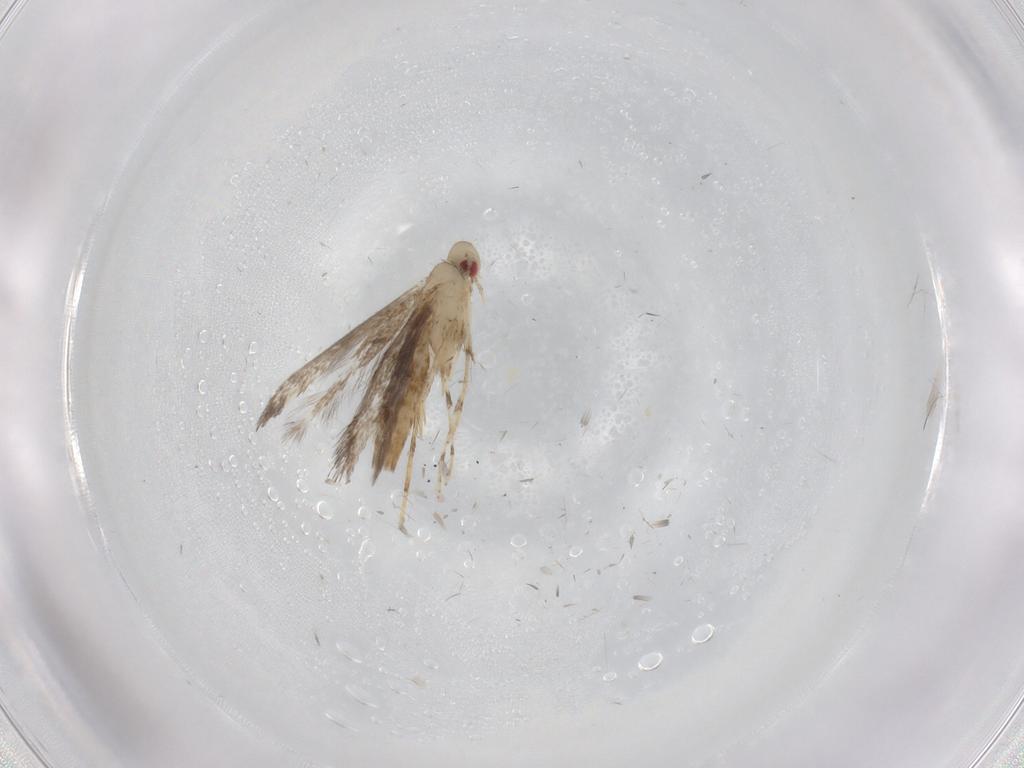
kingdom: Animalia
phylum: Arthropoda
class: Insecta
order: Lepidoptera
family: Gracillariidae
